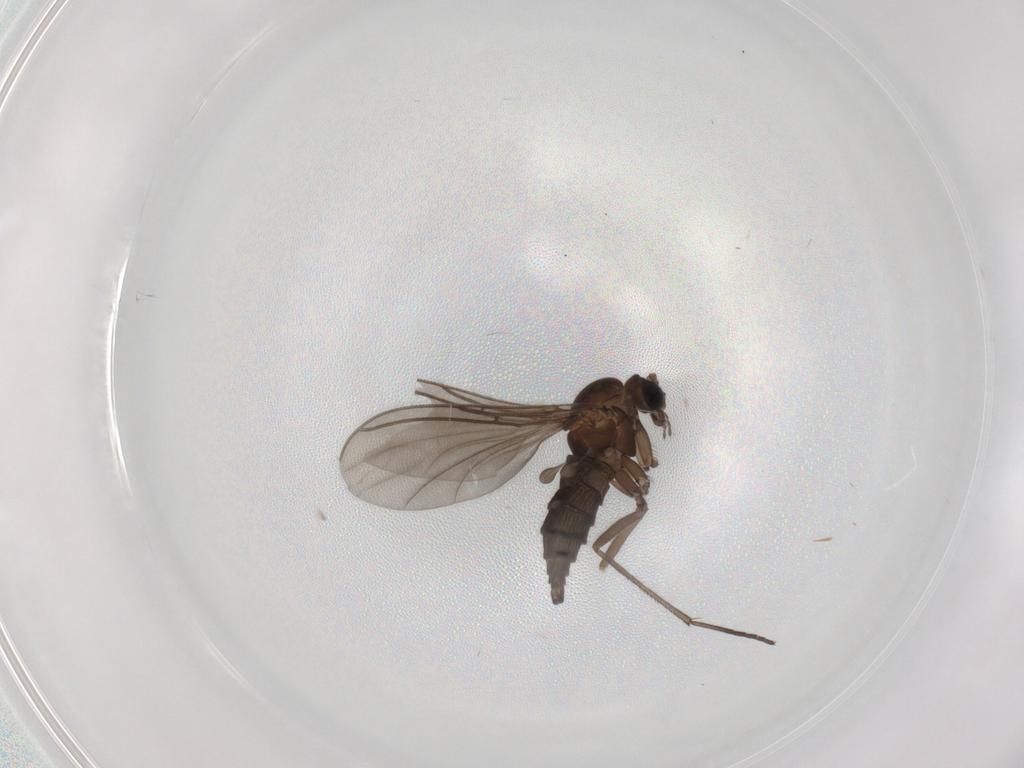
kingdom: Animalia
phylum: Arthropoda
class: Insecta
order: Diptera
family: Sciaridae
